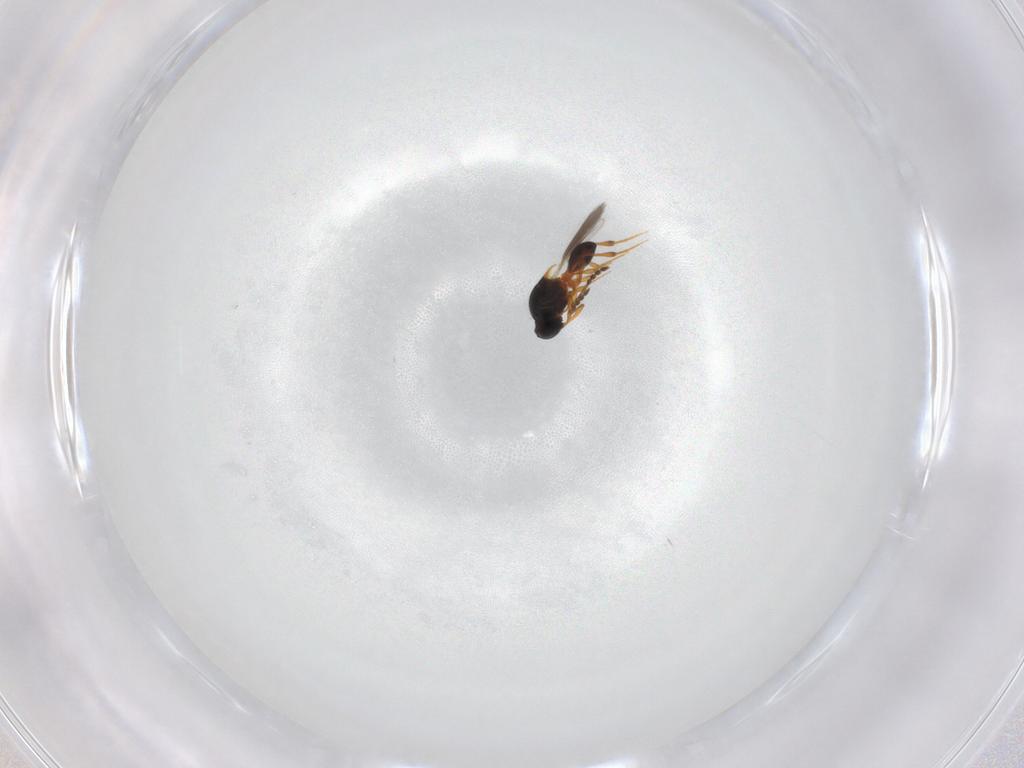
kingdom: Animalia
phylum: Arthropoda
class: Insecta
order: Hymenoptera
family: Platygastridae
